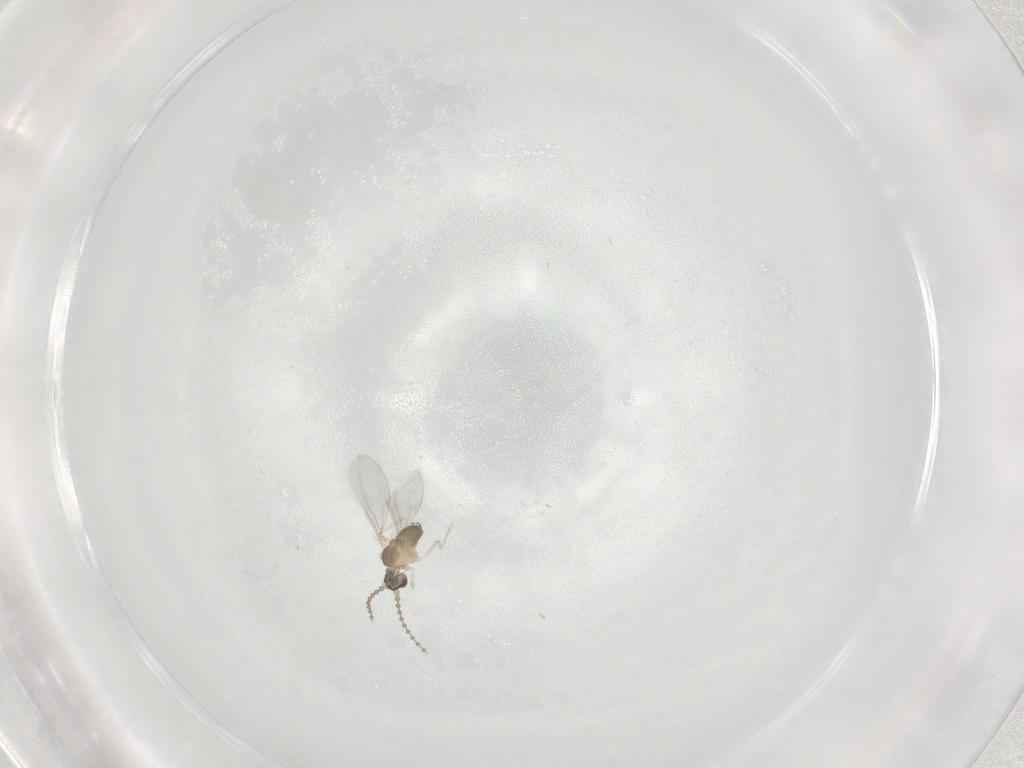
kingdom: Animalia
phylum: Arthropoda
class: Insecta
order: Diptera
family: Cecidomyiidae
